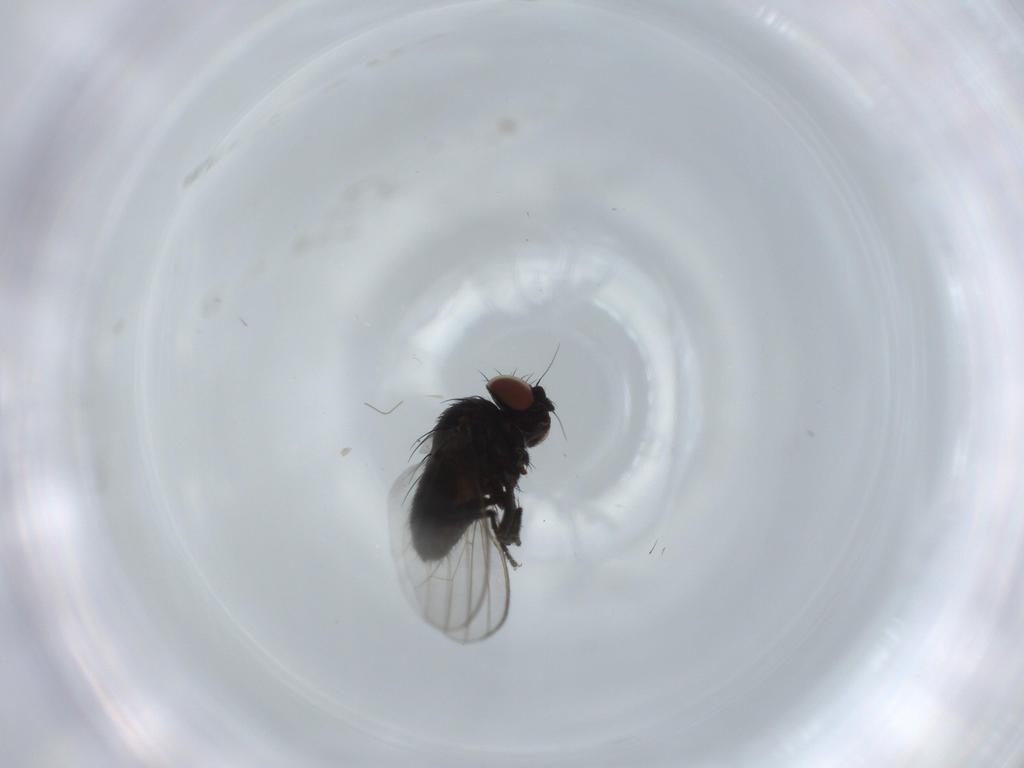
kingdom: Animalia
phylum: Arthropoda
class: Insecta
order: Diptera
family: Milichiidae
